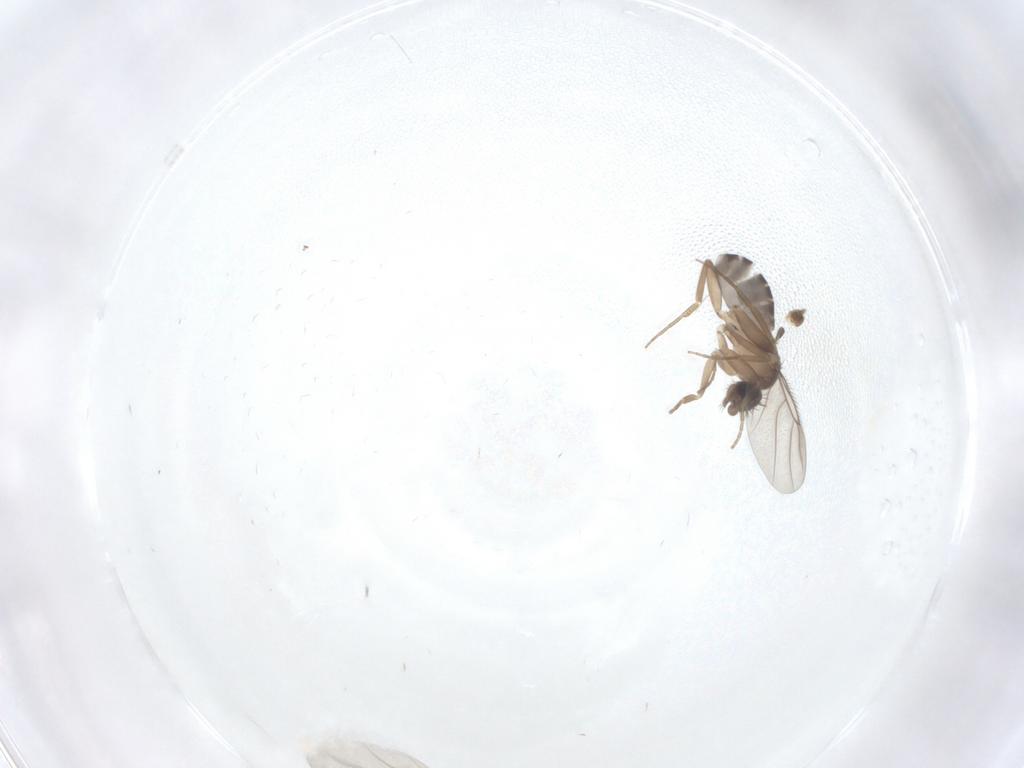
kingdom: Animalia
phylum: Arthropoda
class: Insecta
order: Diptera
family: Phoridae
